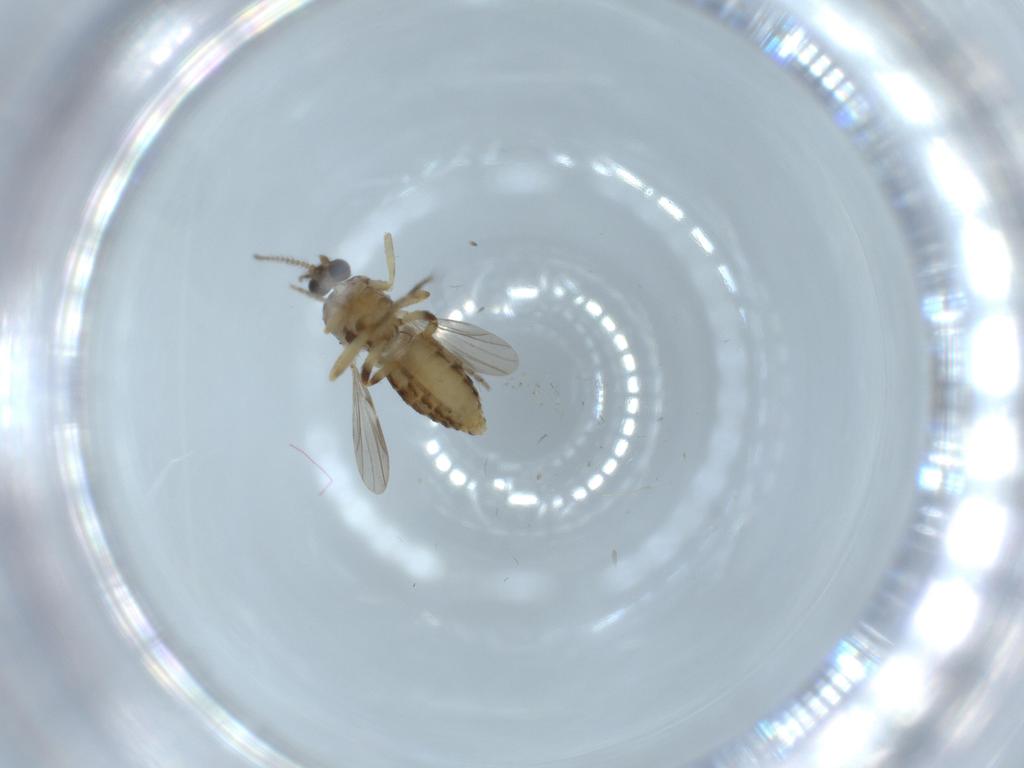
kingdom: Animalia
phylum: Arthropoda
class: Insecta
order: Diptera
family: Ceratopogonidae
